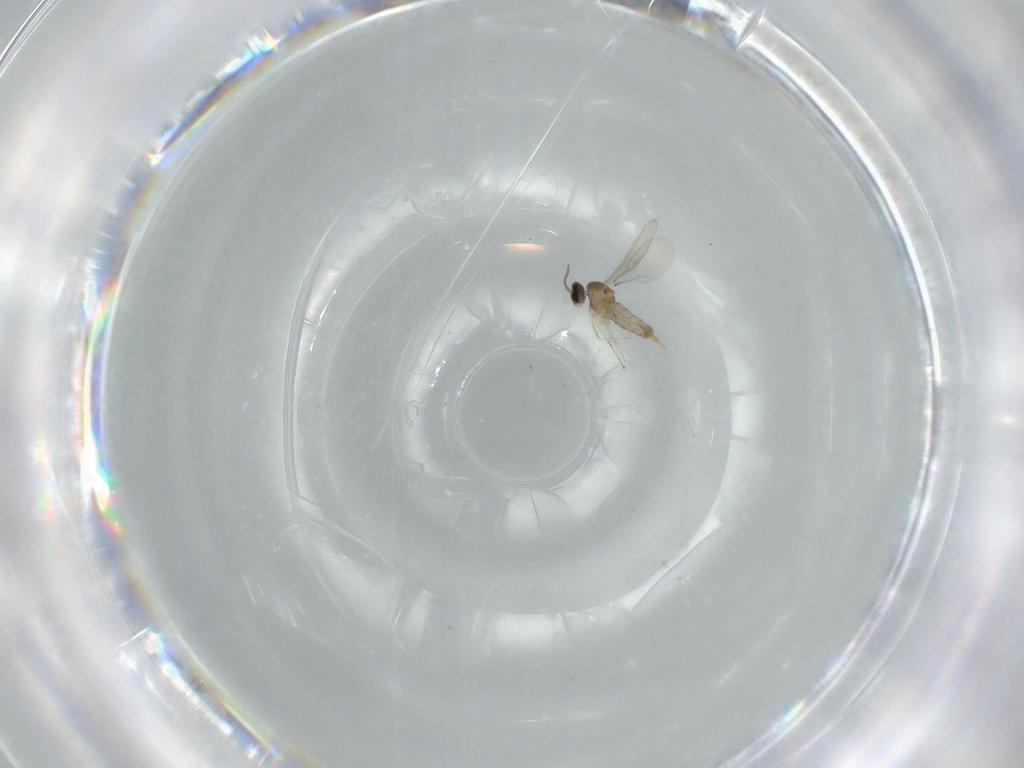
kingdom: Animalia
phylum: Arthropoda
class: Insecta
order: Diptera
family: Cecidomyiidae
